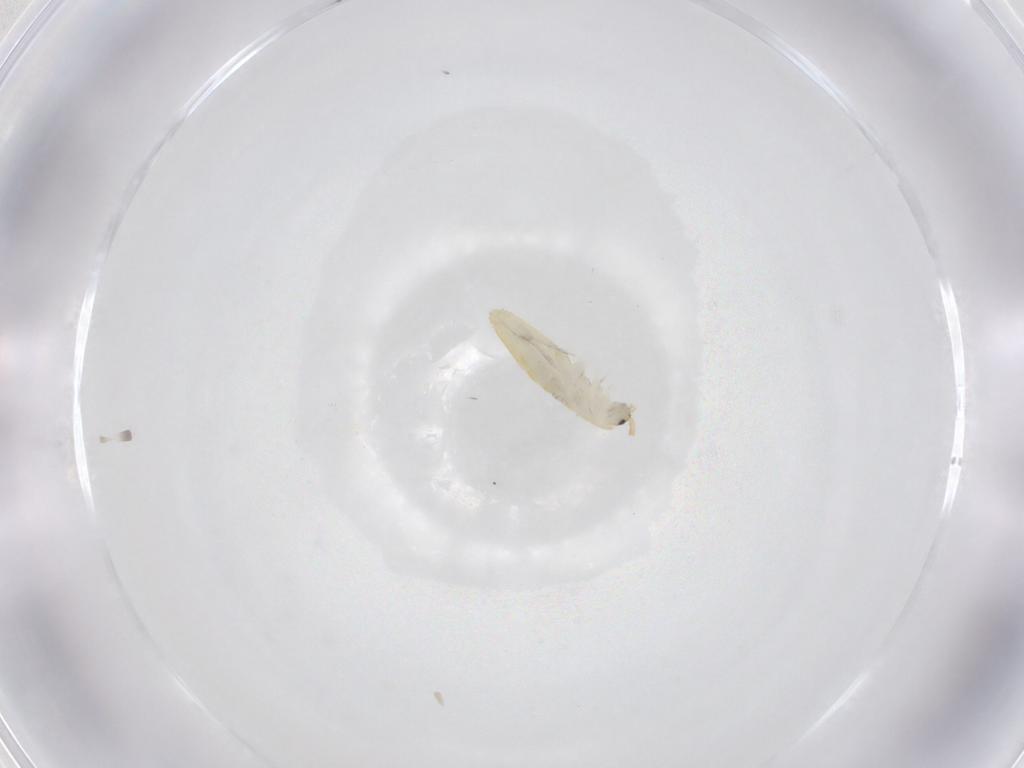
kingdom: Animalia
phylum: Arthropoda
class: Collembola
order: Entomobryomorpha
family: Entomobryidae
